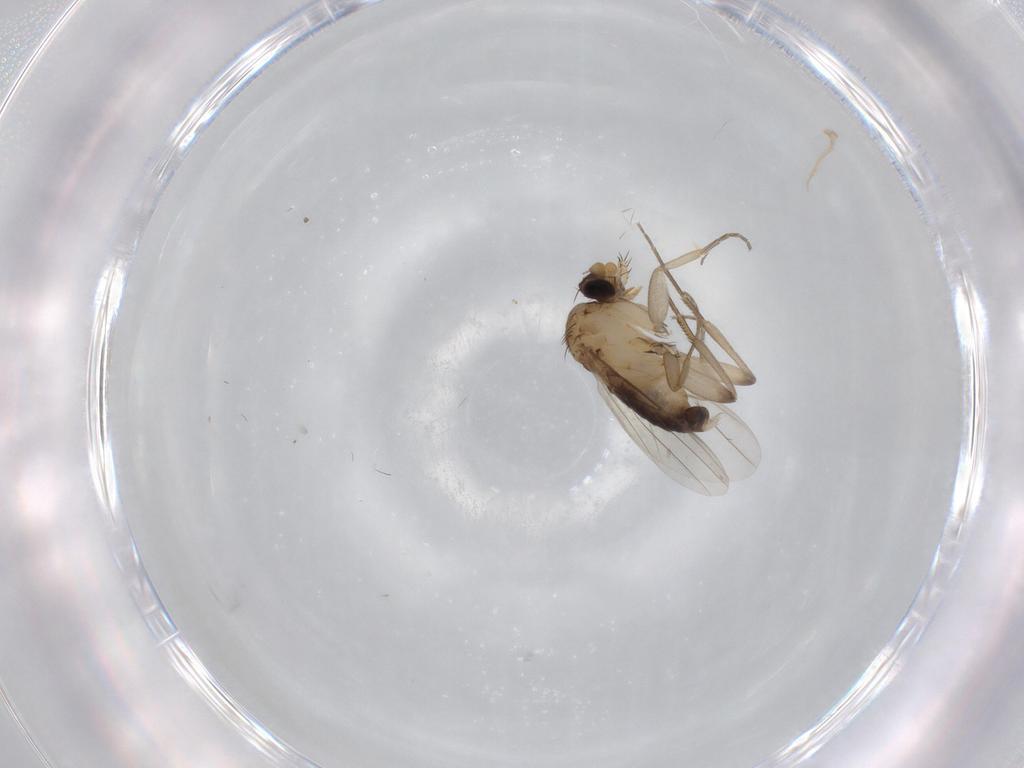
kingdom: Animalia
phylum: Arthropoda
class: Insecta
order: Diptera
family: Phoridae
